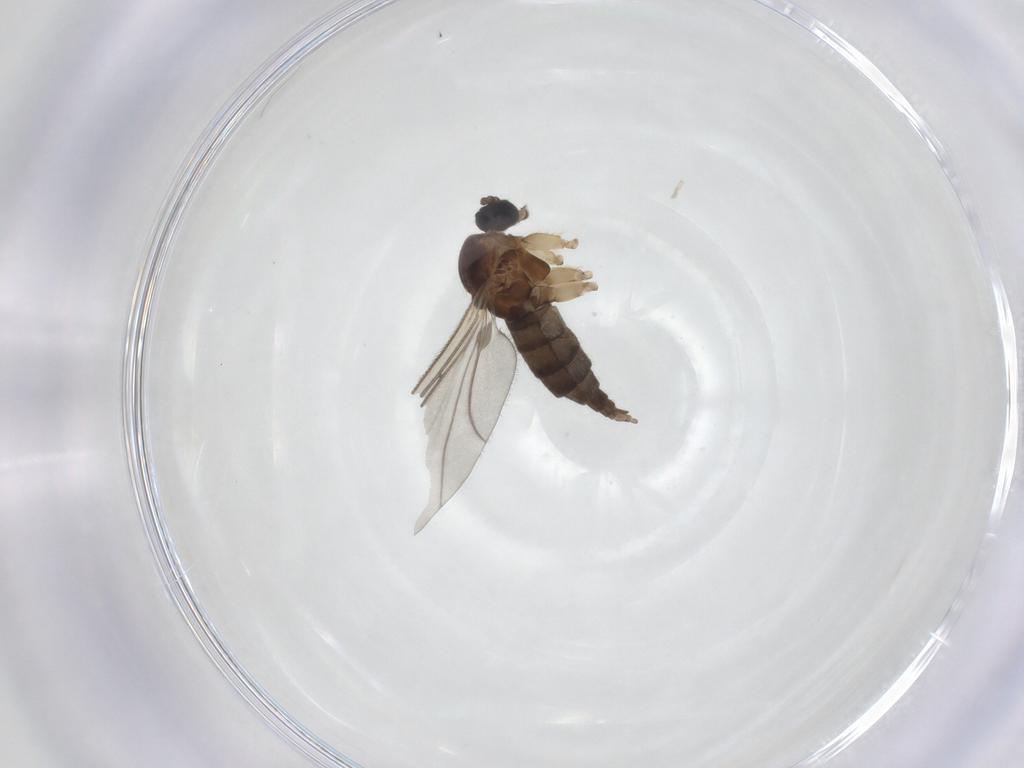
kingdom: Animalia
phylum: Arthropoda
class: Insecta
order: Diptera
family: Sciaridae
